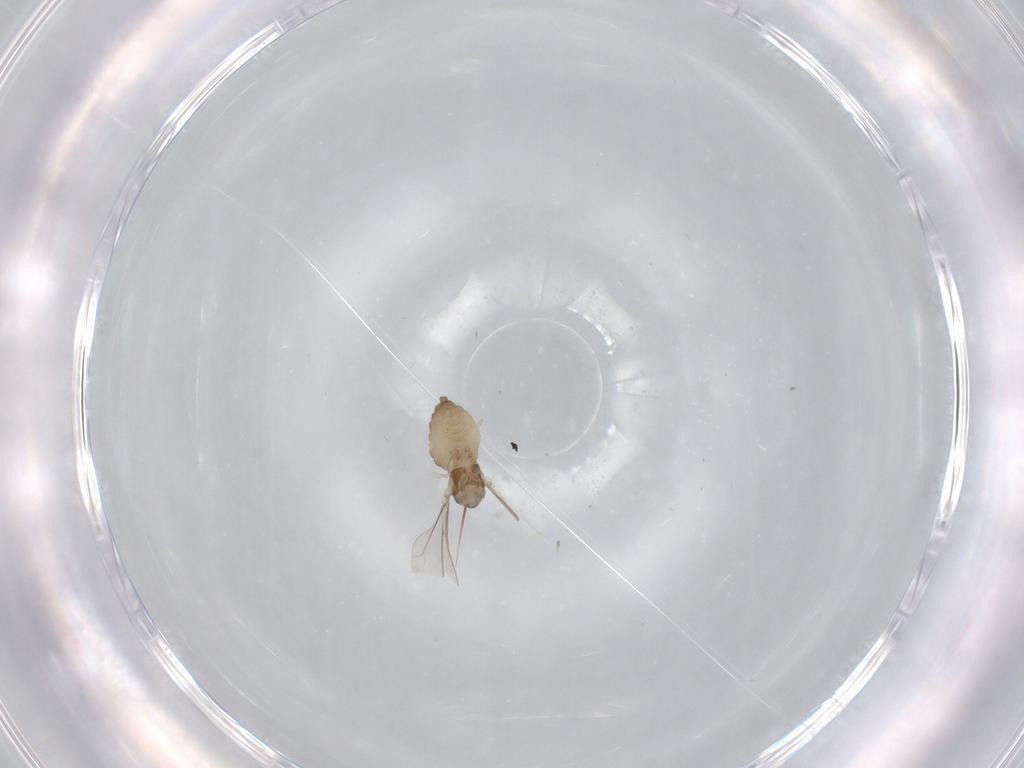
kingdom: Animalia
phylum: Arthropoda
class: Insecta
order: Diptera
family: Cecidomyiidae
